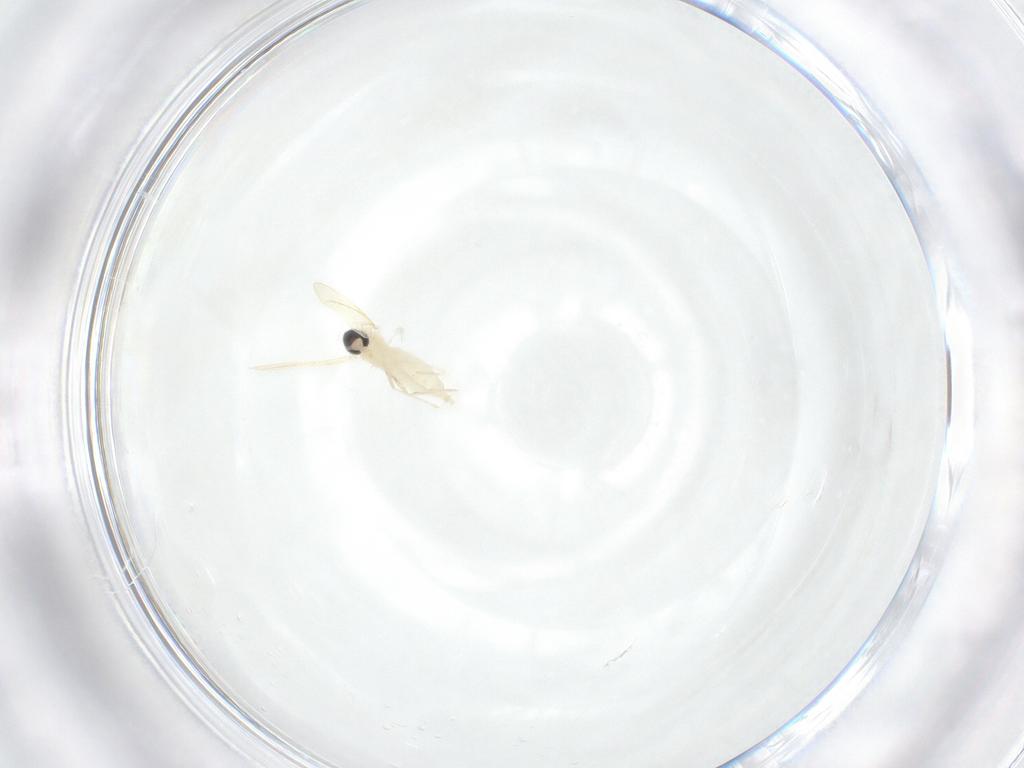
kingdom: Animalia
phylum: Arthropoda
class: Insecta
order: Diptera
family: Cecidomyiidae
